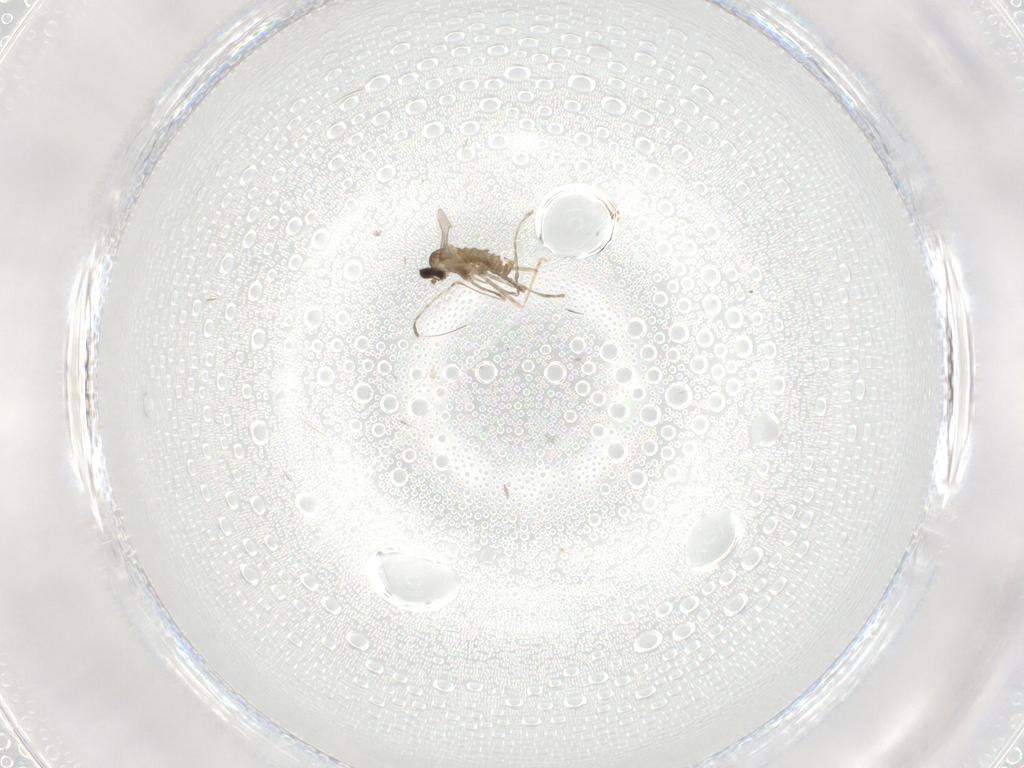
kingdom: Animalia
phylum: Arthropoda
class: Insecta
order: Diptera
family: Cecidomyiidae
